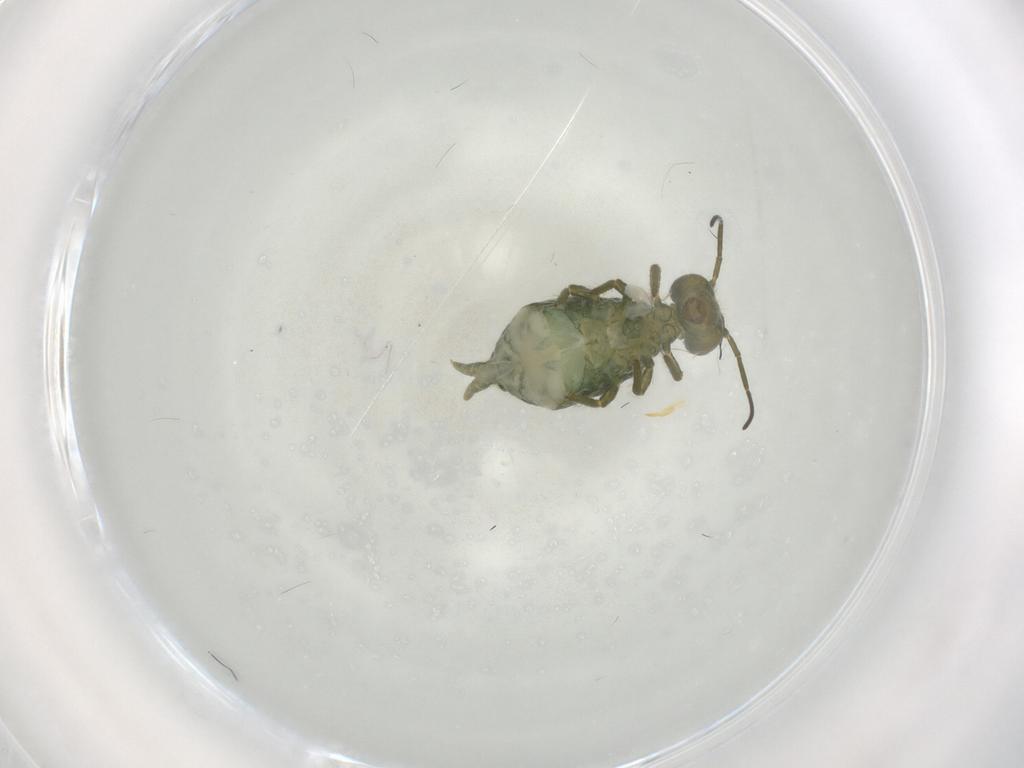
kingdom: Animalia
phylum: Arthropoda
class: Collembola
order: Symphypleona
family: Sminthuridae
